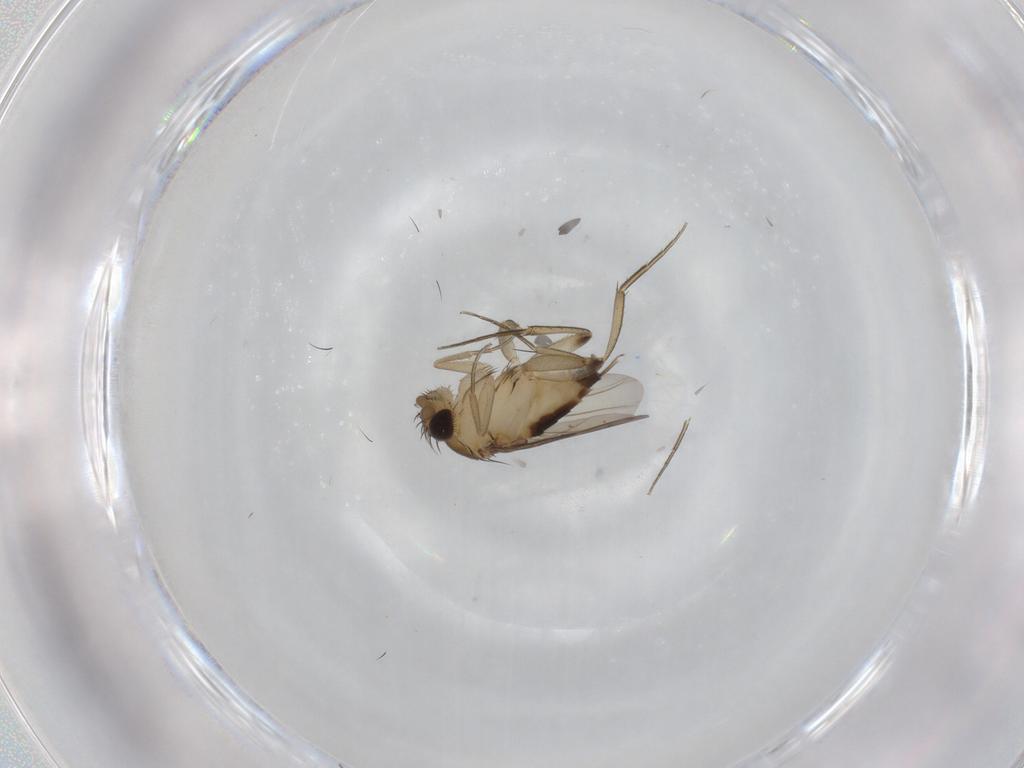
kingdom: Animalia
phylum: Arthropoda
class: Insecta
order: Diptera
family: Phoridae
